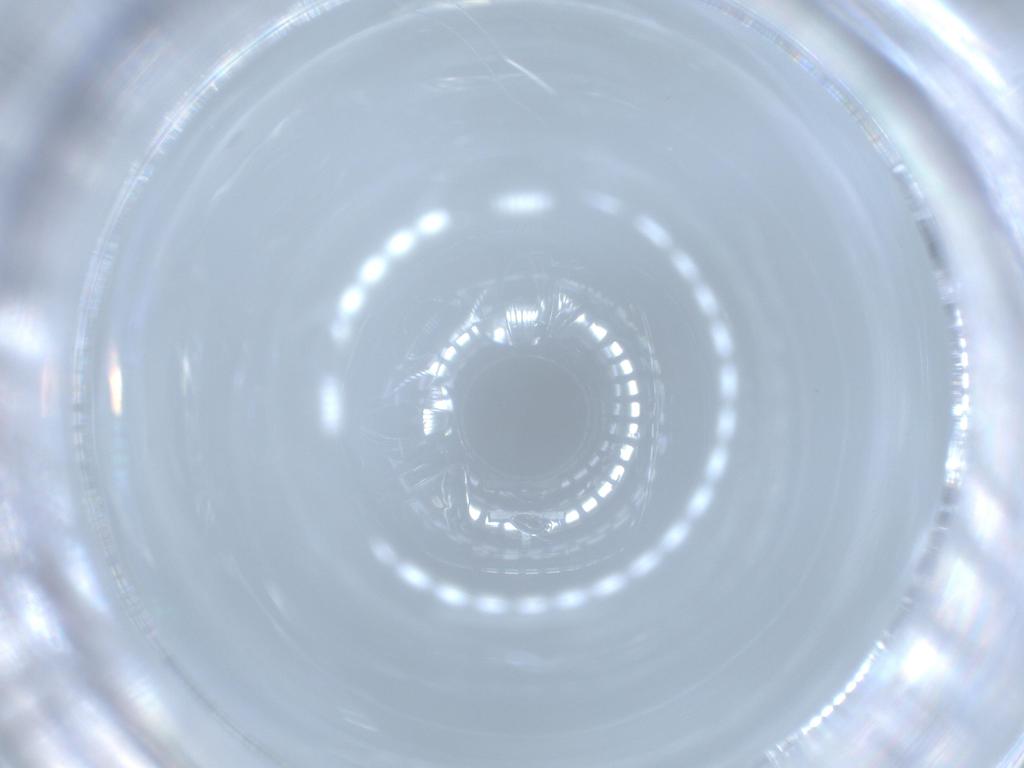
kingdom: Animalia
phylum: Arthropoda
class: Insecta
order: Hymenoptera
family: Scelionidae
